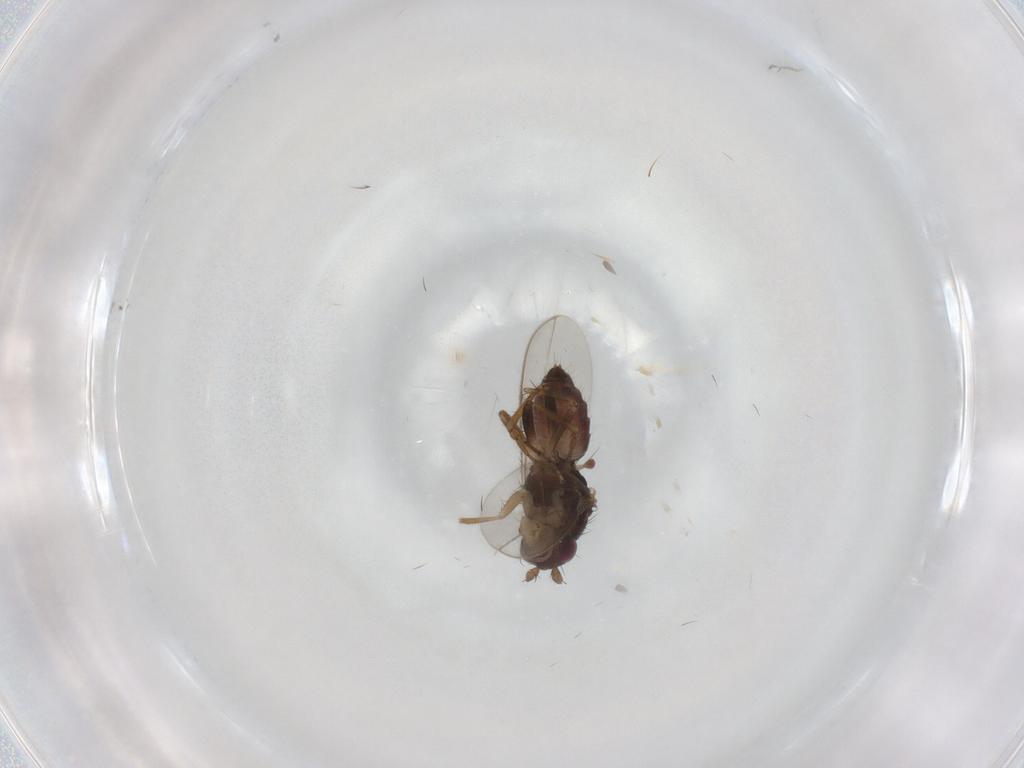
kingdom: Animalia
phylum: Arthropoda
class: Insecta
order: Diptera
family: Sphaeroceridae
